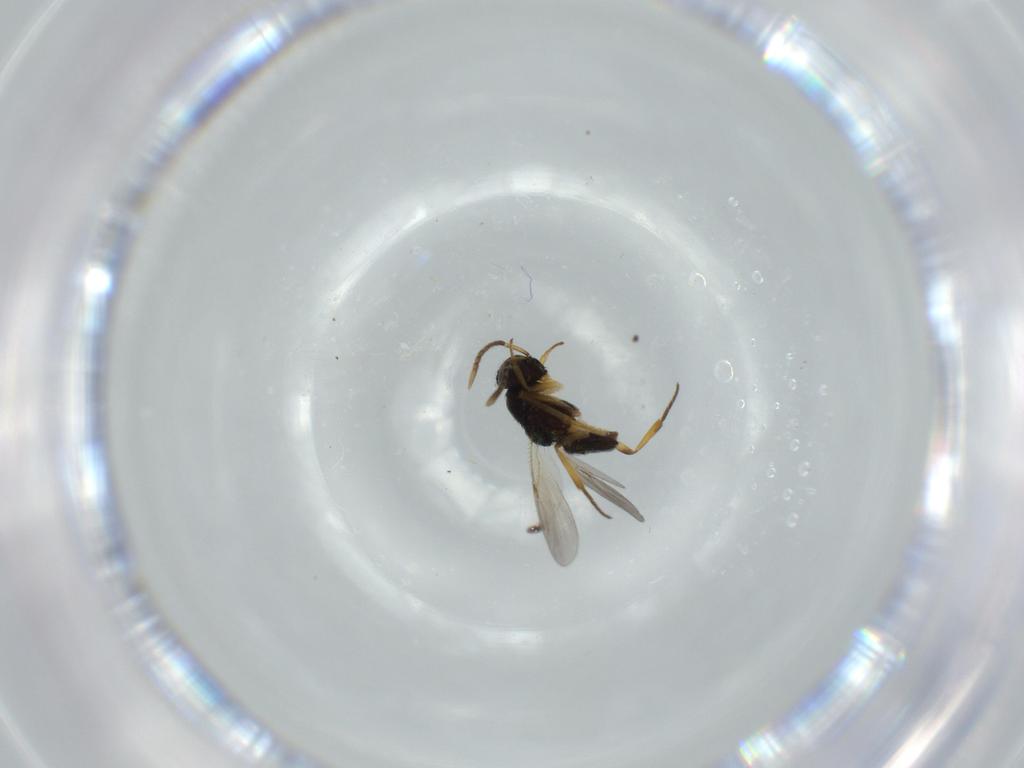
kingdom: Animalia
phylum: Arthropoda
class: Insecta
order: Hymenoptera
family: Encyrtidae
